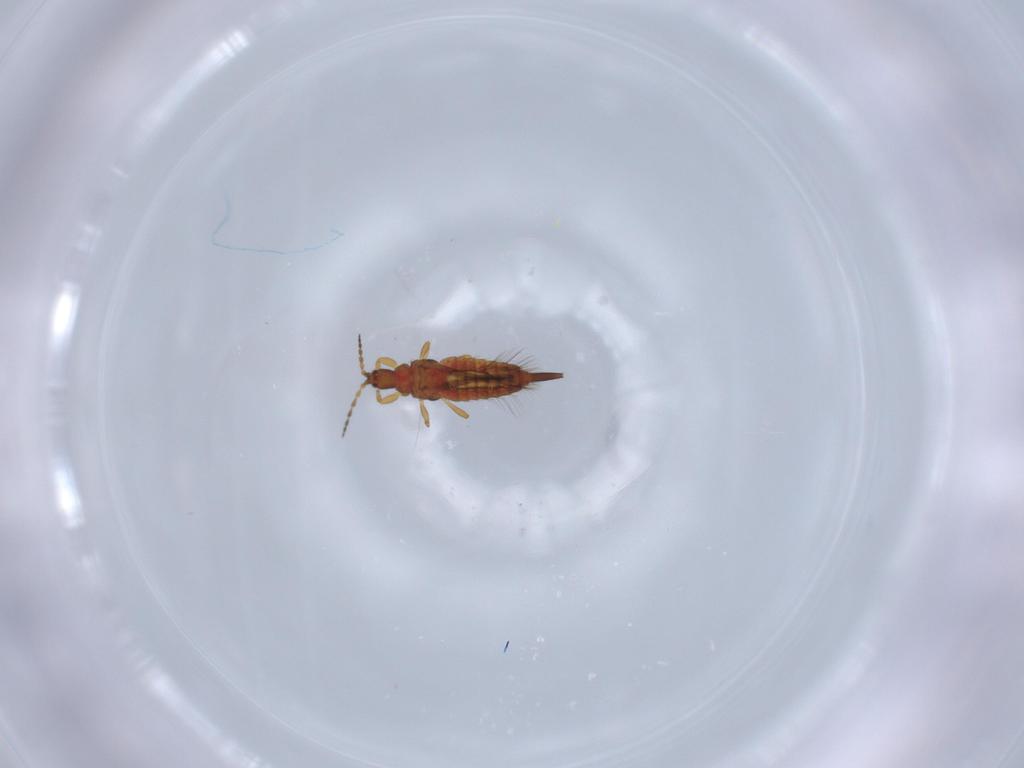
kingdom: Animalia
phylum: Arthropoda
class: Insecta
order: Thysanoptera
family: Phlaeothripidae
